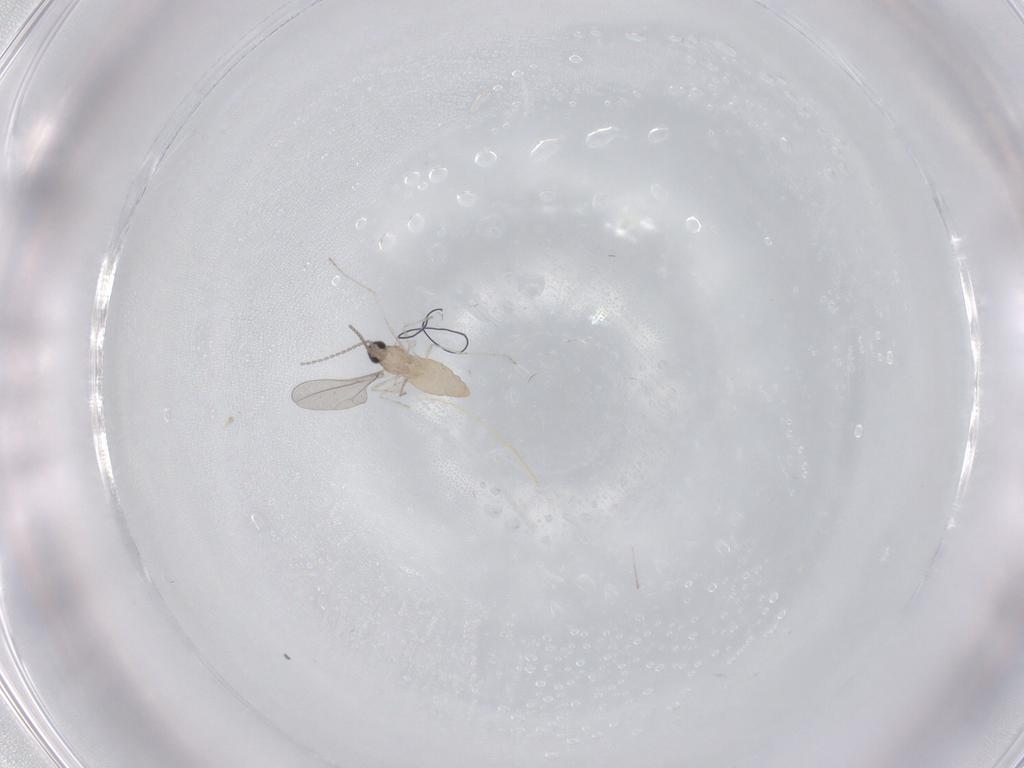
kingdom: Animalia
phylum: Arthropoda
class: Insecta
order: Diptera
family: Cecidomyiidae
